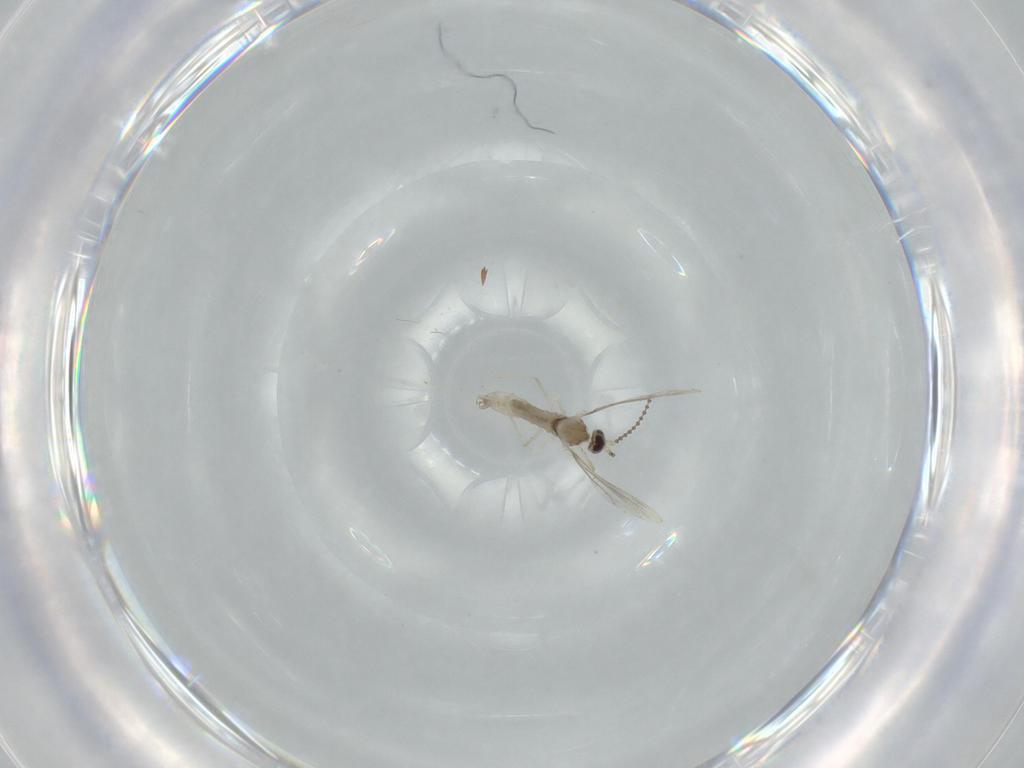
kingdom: Animalia
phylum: Arthropoda
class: Insecta
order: Diptera
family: Cecidomyiidae
